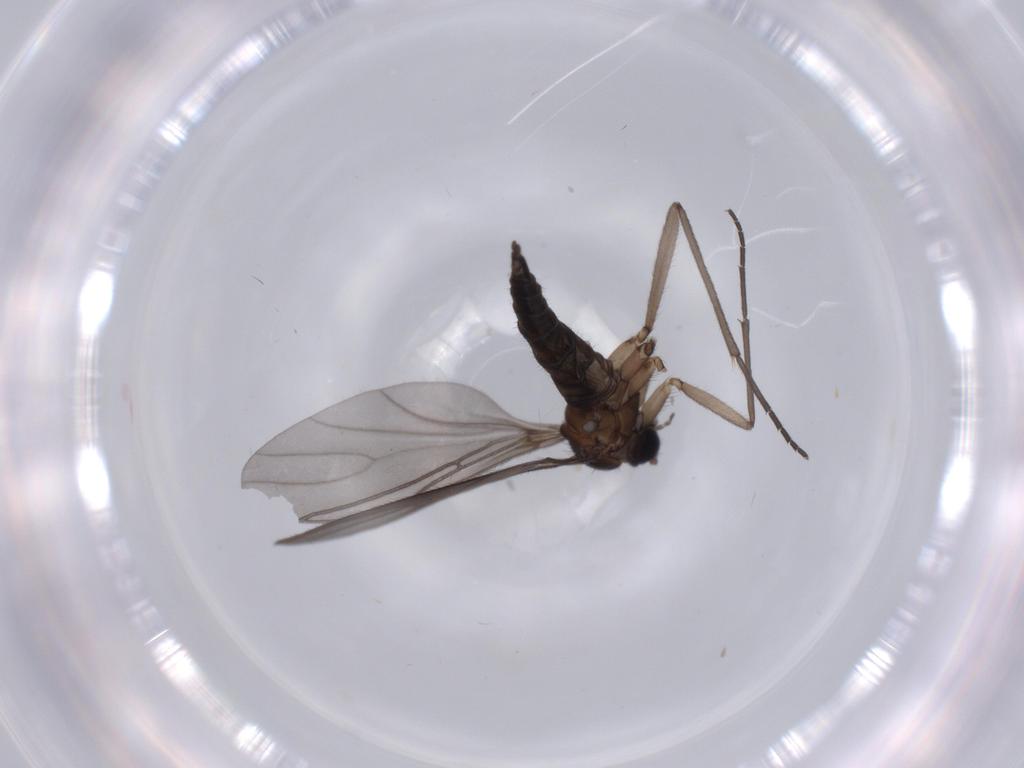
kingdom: Animalia
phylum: Arthropoda
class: Insecta
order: Diptera
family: Sciaridae
